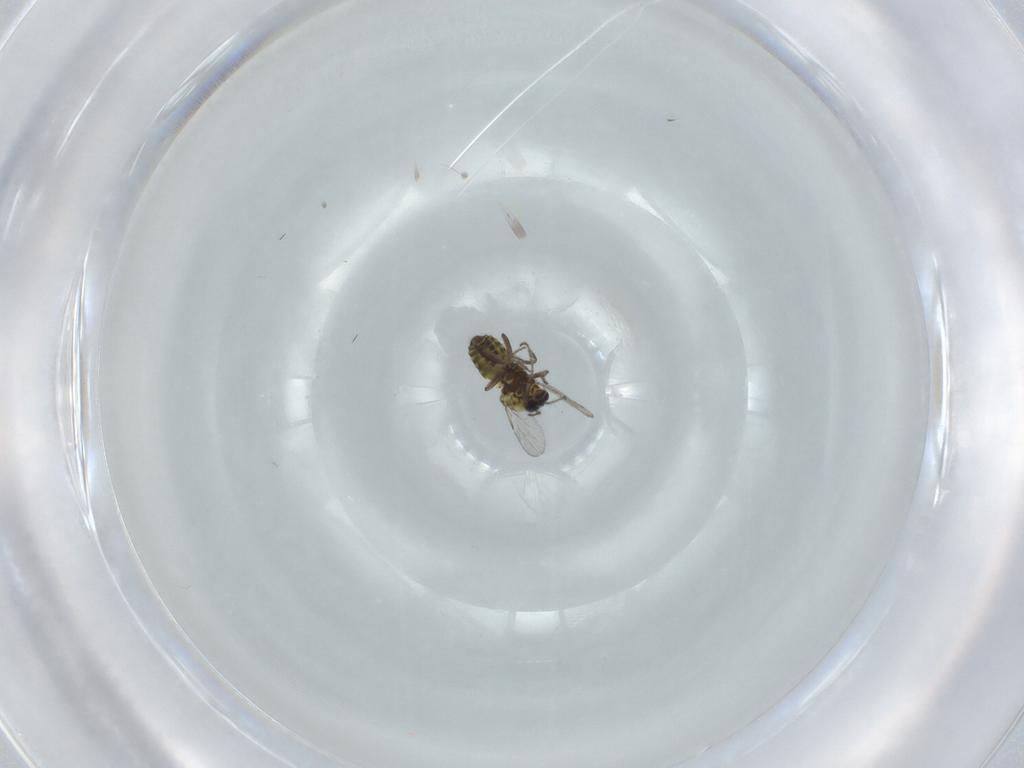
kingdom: Animalia
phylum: Arthropoda
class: Insecta
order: Diptera
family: Ceratopogonidae
